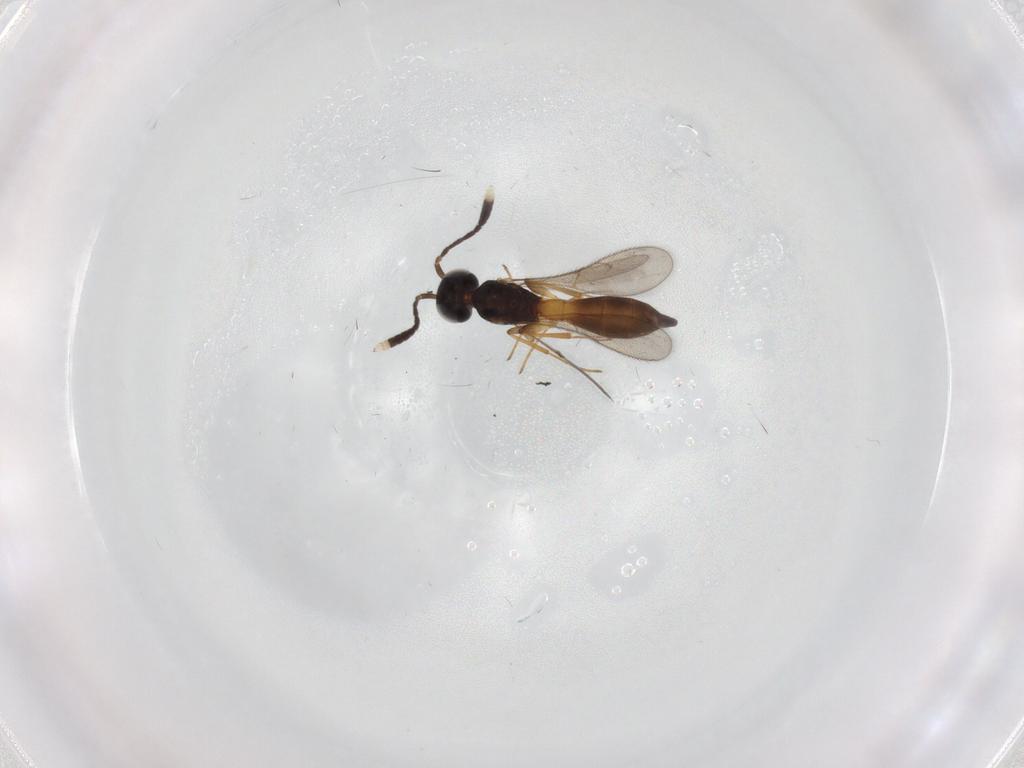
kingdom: Animalia
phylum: Arthropoda
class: Insecta
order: Hymenoptera
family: Scelionidae
